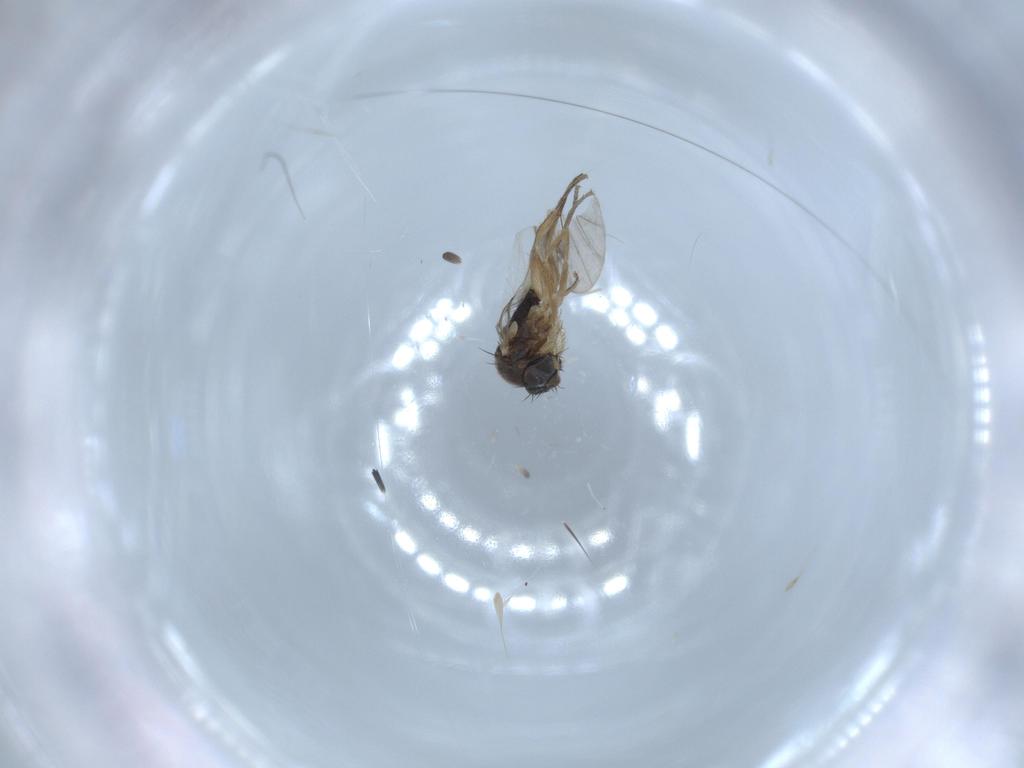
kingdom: Animalia
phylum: Arthropoda
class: Insecta
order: Diptera
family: Phoridae
